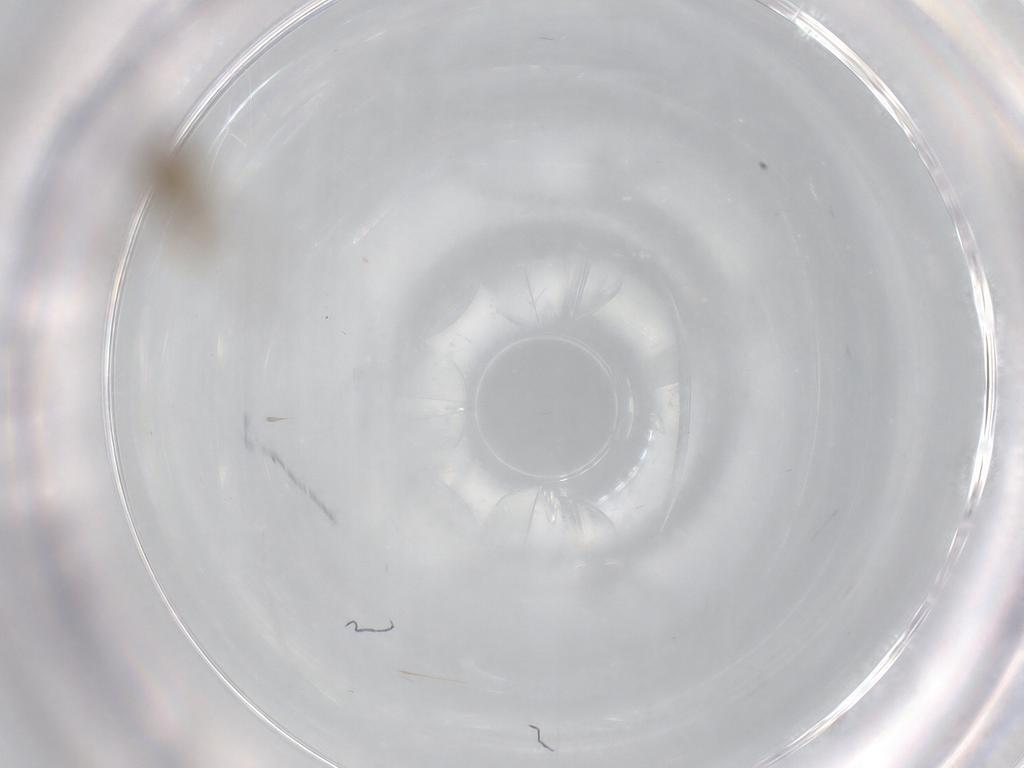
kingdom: Animalia
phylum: Arthropoda
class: Insecta
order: Diptera
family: Chironomidae
